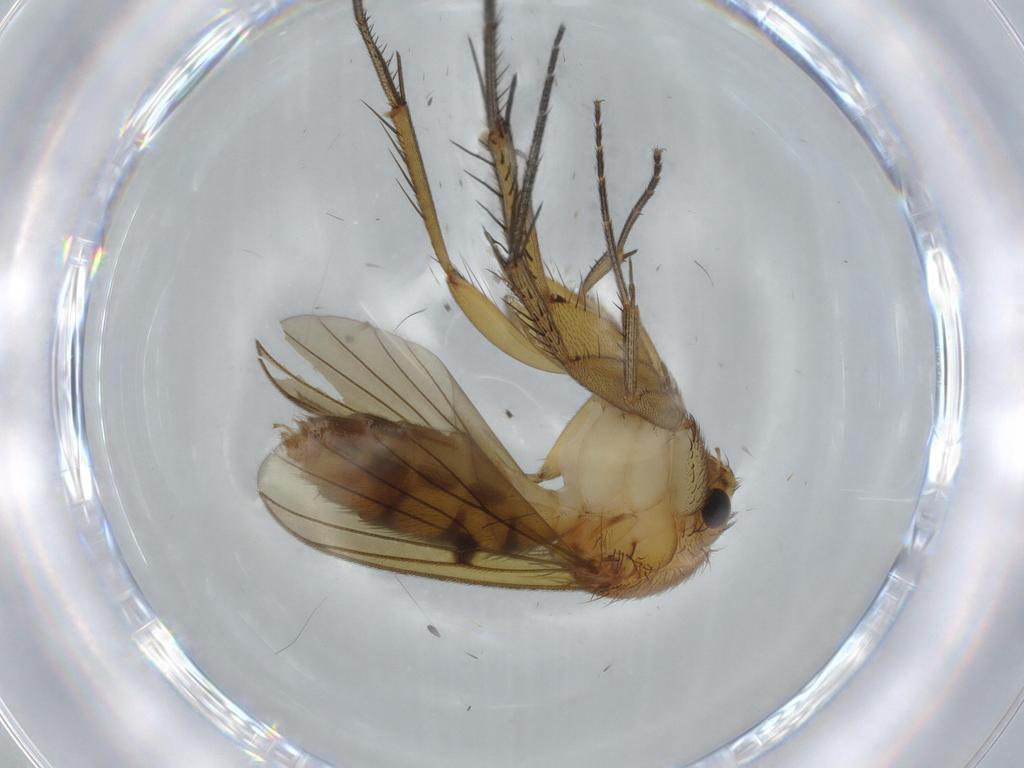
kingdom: Animalia
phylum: Arthropoda
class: Insecta
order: Diptera
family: Mycetophilidae
